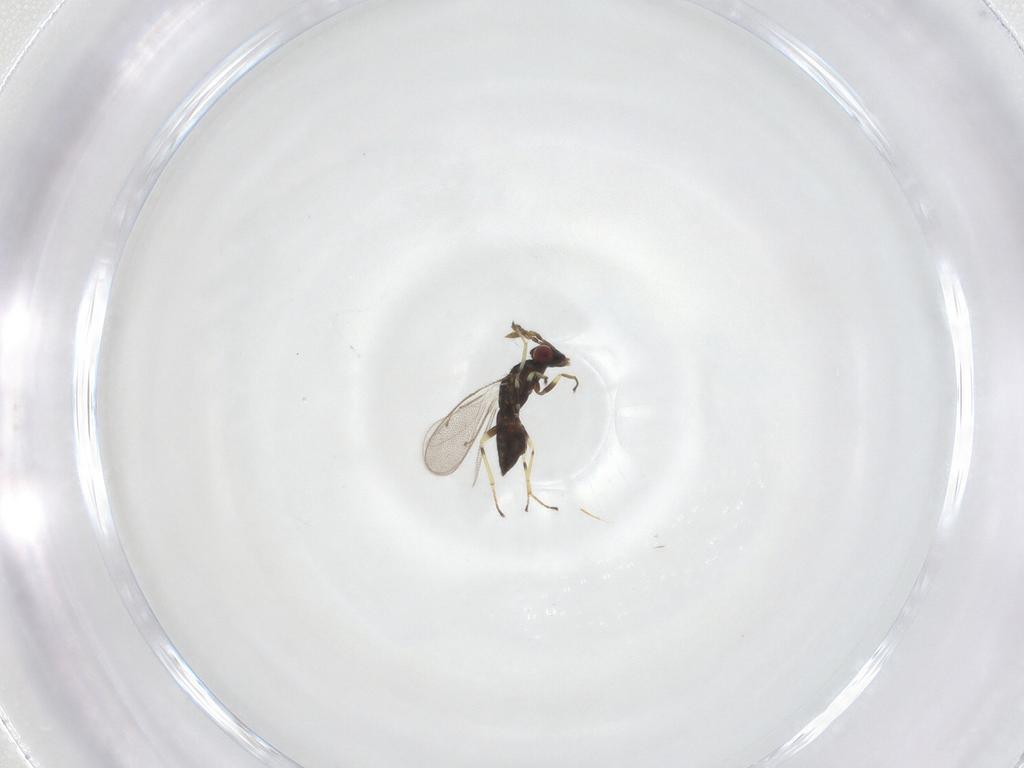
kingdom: Animalia
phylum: Arthropoda
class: Insecta
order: Hymenoptera
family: Eulophidae
